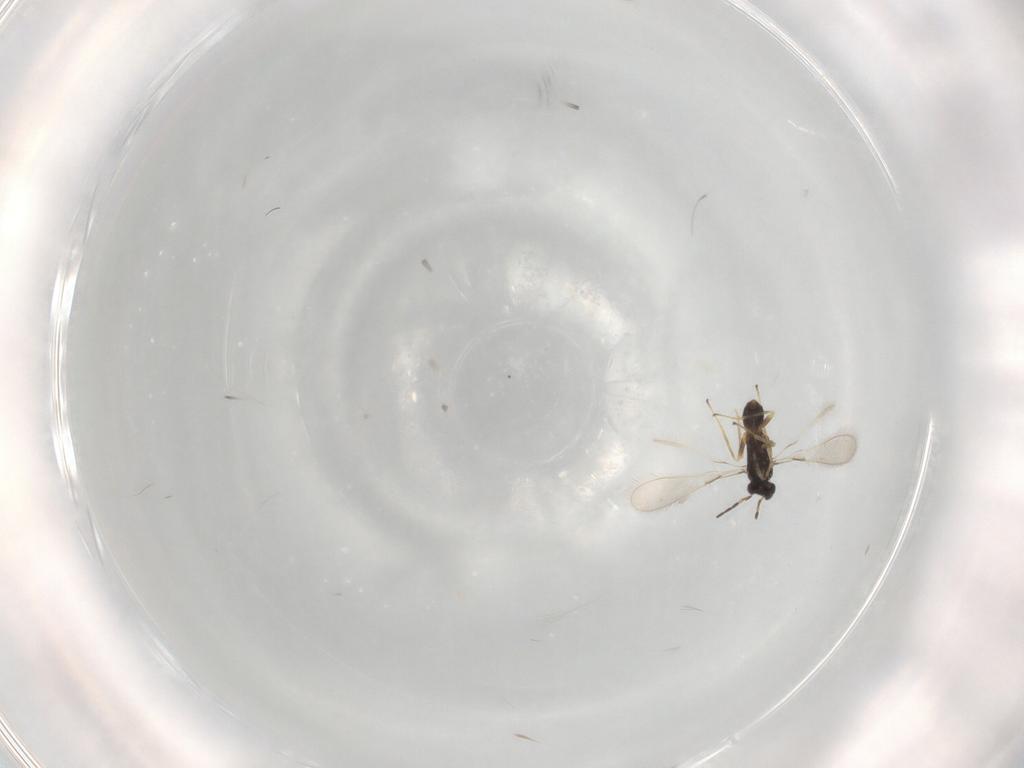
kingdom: Animalia
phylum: Arthropoda
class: Insecta
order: Hymenoptera
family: Mymaridae
